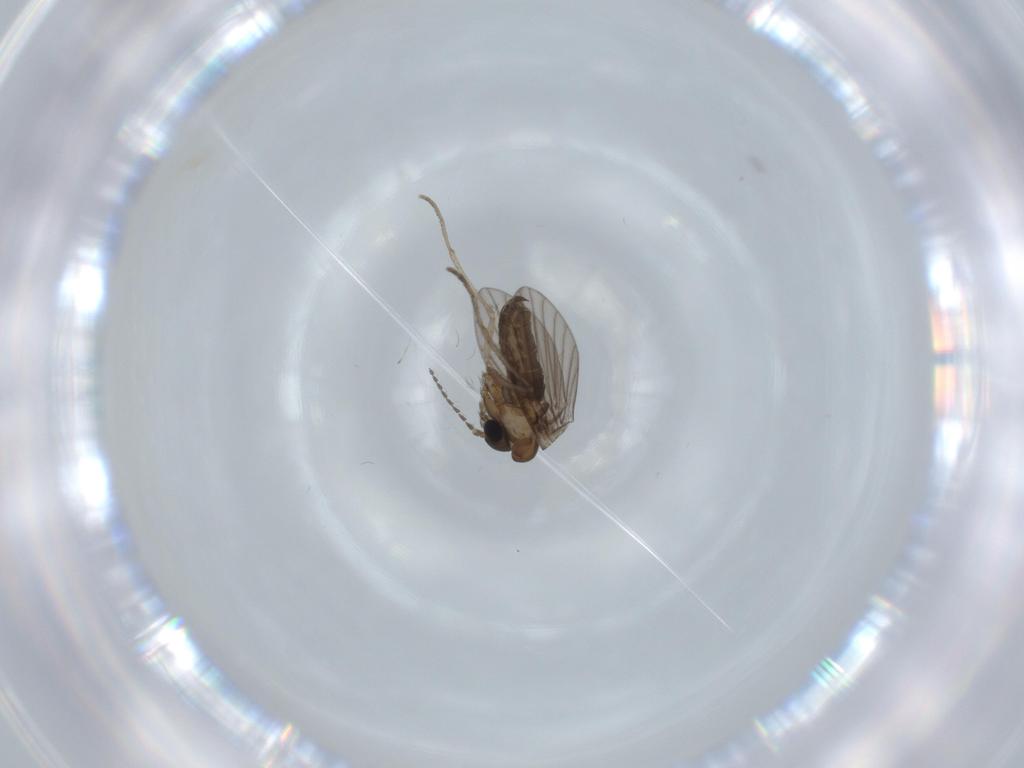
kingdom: Animalia
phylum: Arthropoda
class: Insecta
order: Diptera
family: Psychodidae
